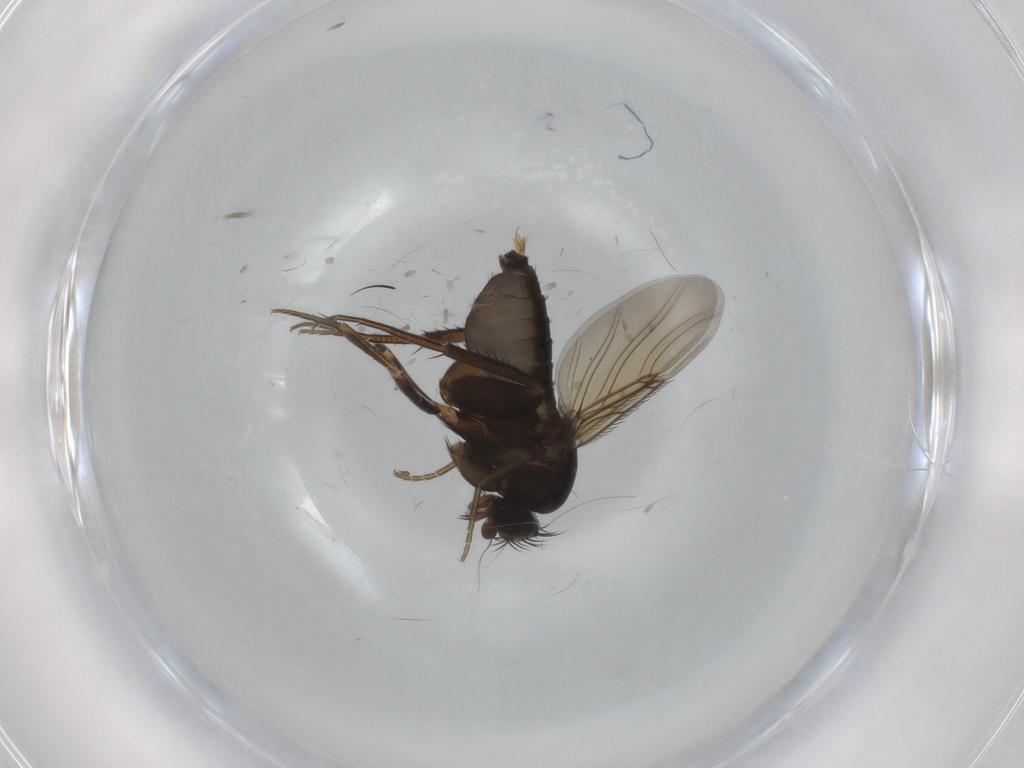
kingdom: Animalia
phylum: Arthropoda
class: Insecta
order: Diptera
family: Phoridae
